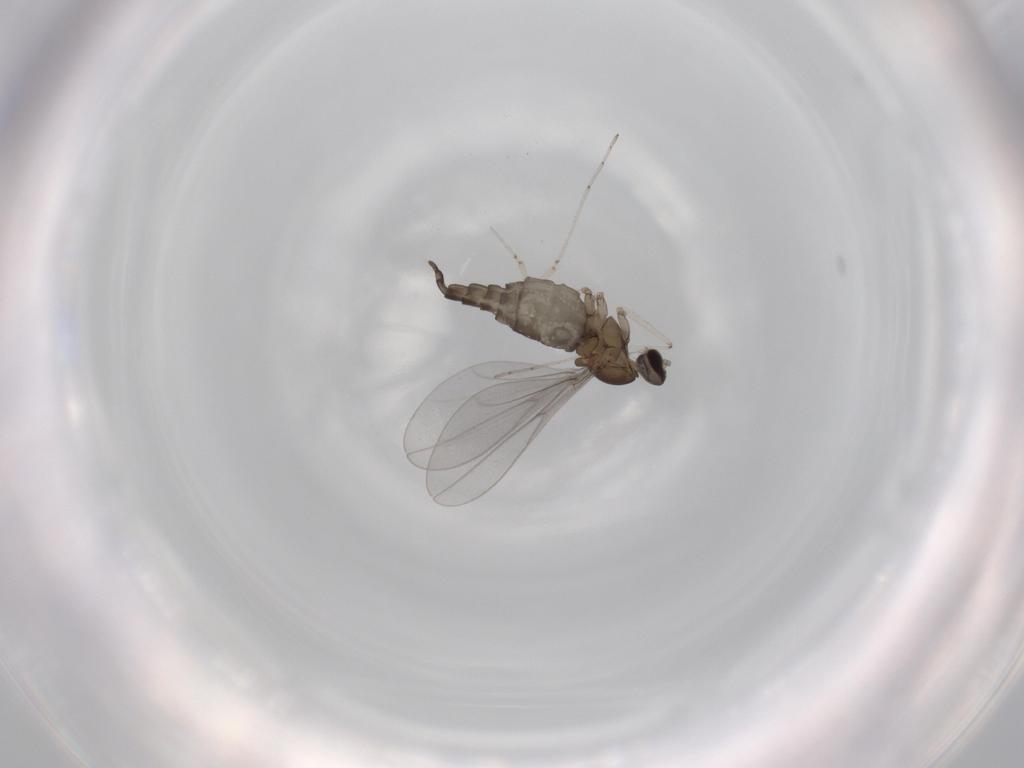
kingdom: Animalia
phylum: Arthropoda
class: Insecta
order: Diptera
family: Cecidomyiidae
